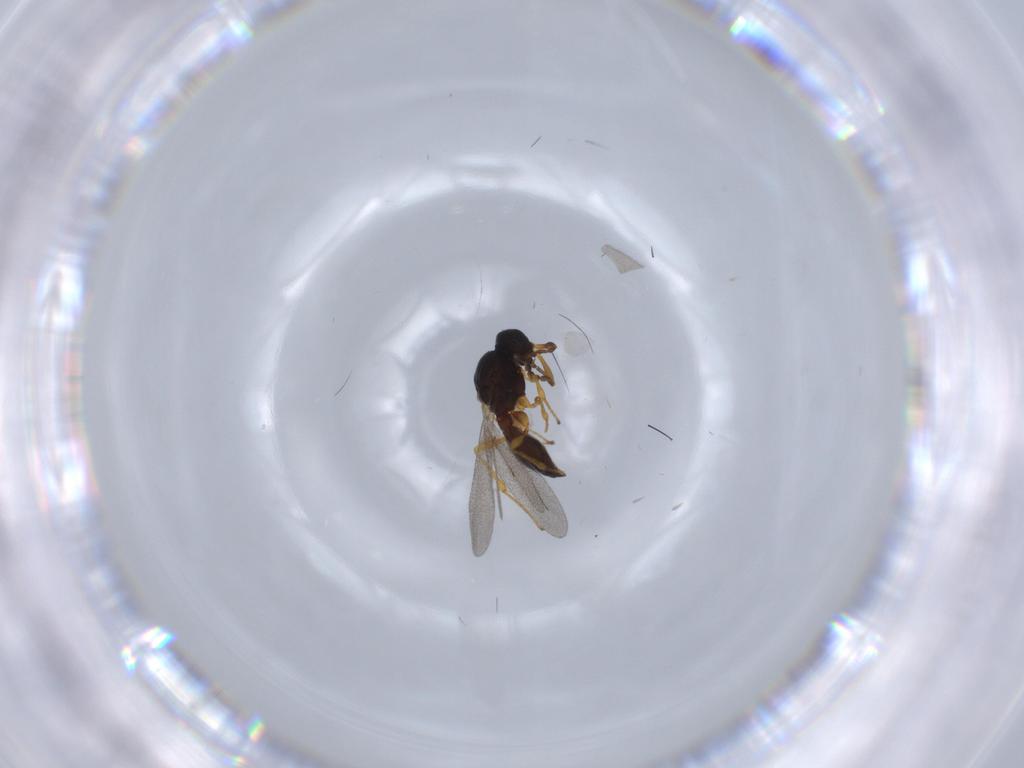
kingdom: Animalia
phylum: Arthropoda
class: Insecta
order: Diptera
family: Mythicomyiidae
